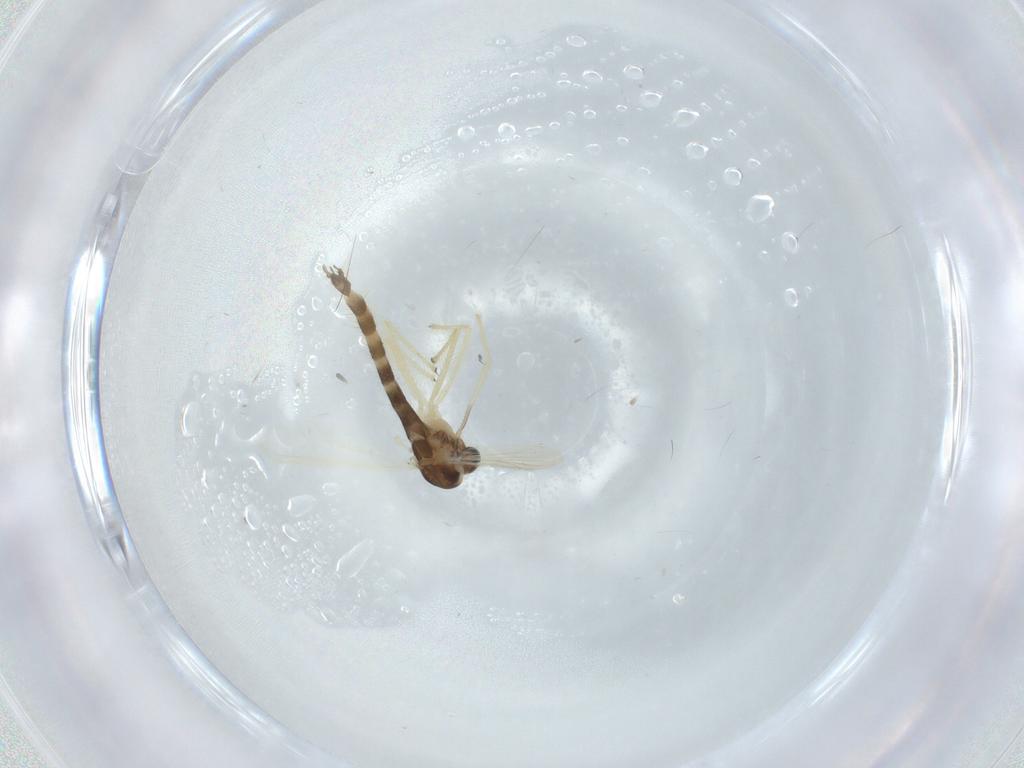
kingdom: Animalia
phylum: Arthropoda
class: Insecta
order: Diptera
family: Chironomidae
